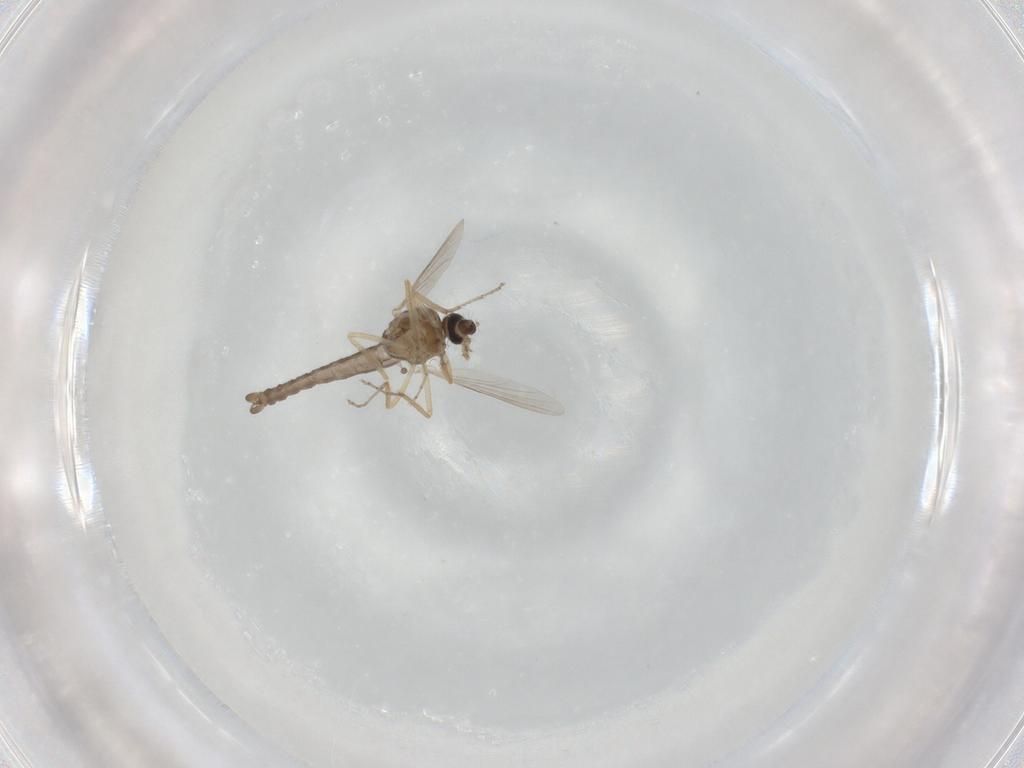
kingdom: Animalia
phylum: Arthropoda
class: Insecta
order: Diptera
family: Ceratopogonidae
